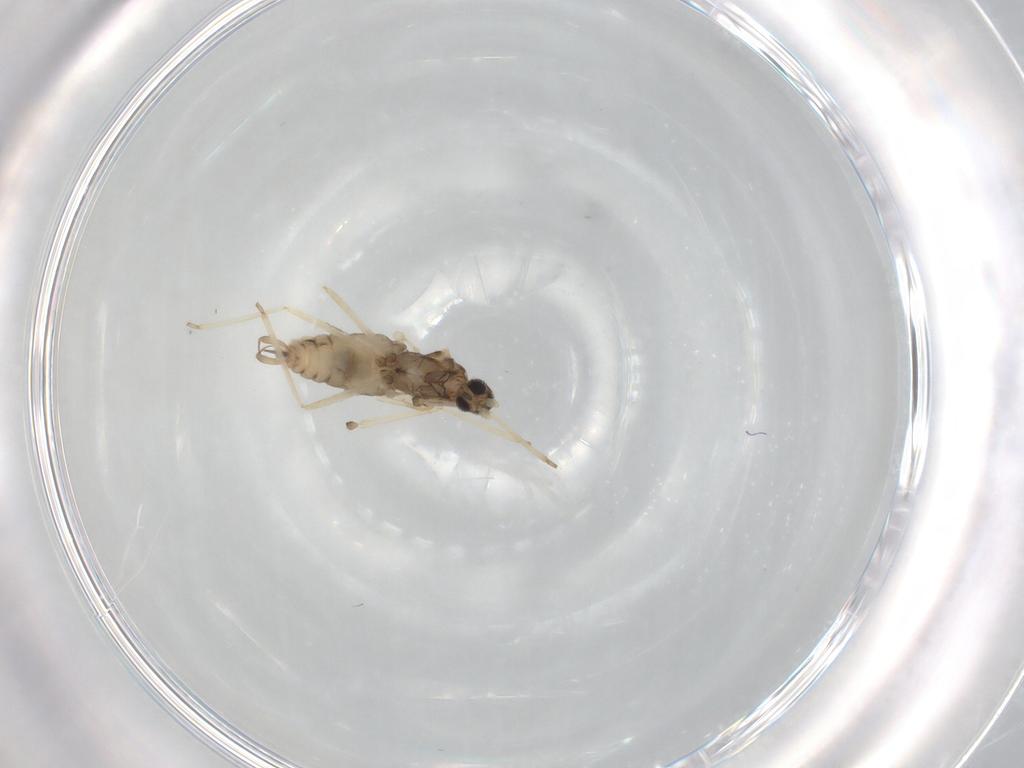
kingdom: Animalia
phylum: Arthropoda
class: Insecta
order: Diptera
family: Cecidomyiidae
